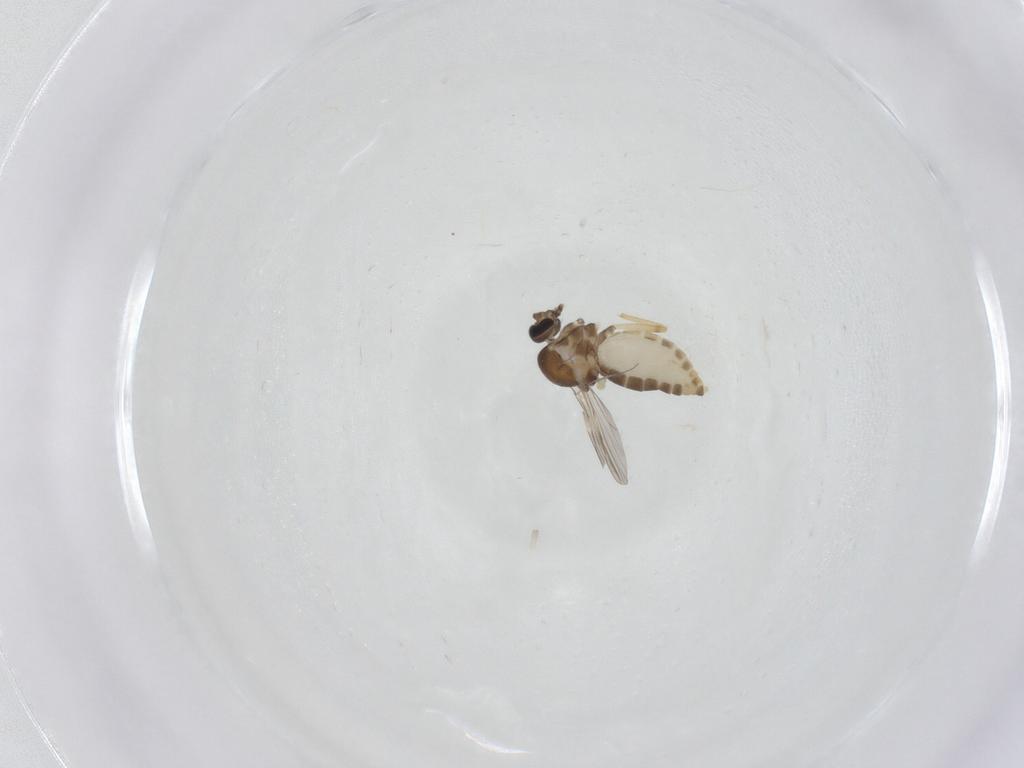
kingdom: Animalia
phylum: Arthropoda
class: Insecta
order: Diptera
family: Ceratopogonidae
